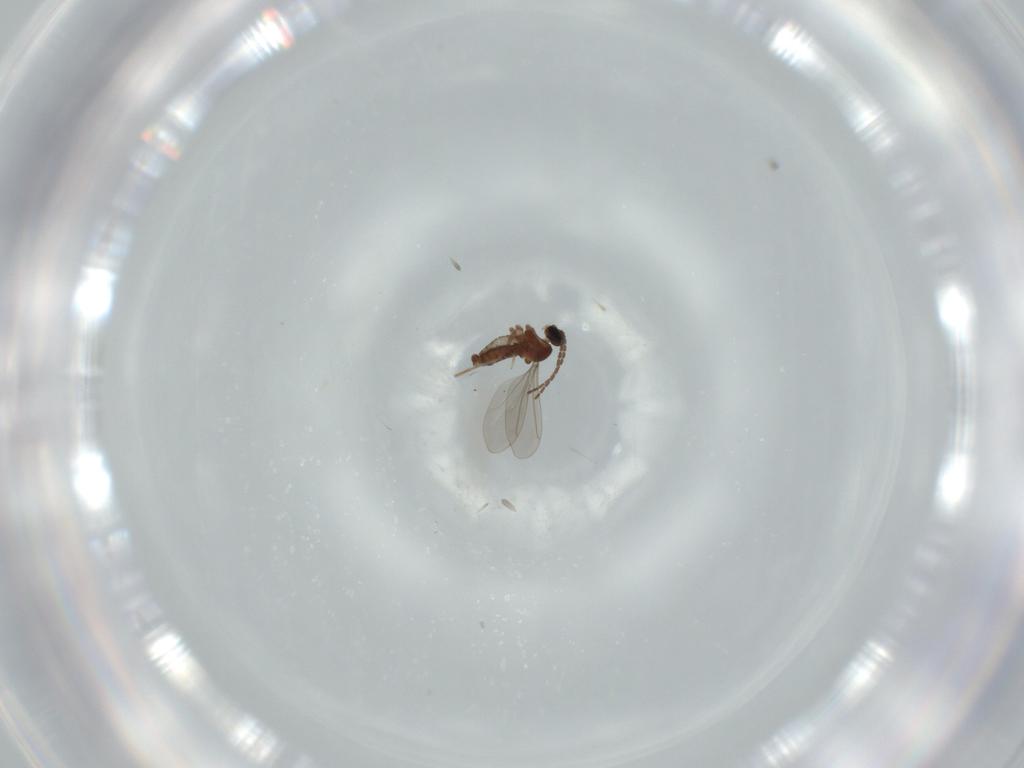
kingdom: Animalia
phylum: Arthropoda
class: Insecta
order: Diptera
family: Cecidomyiidae
